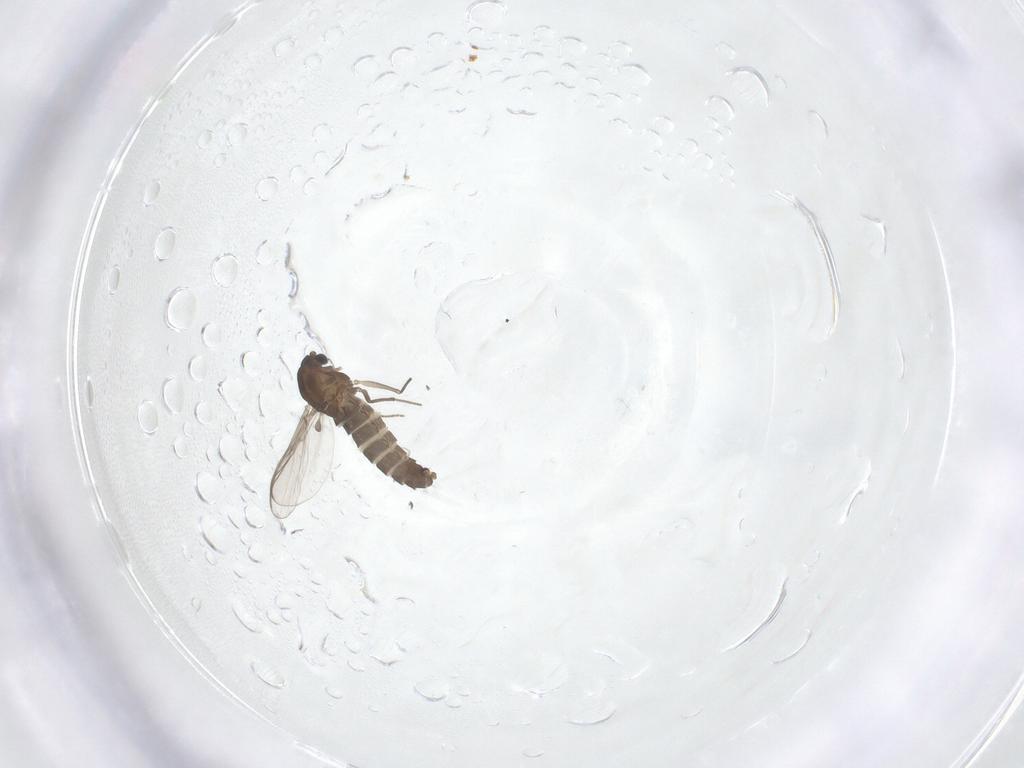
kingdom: Animalia
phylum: Arthropoda
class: Insecta
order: Diptera
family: Chironomidae
